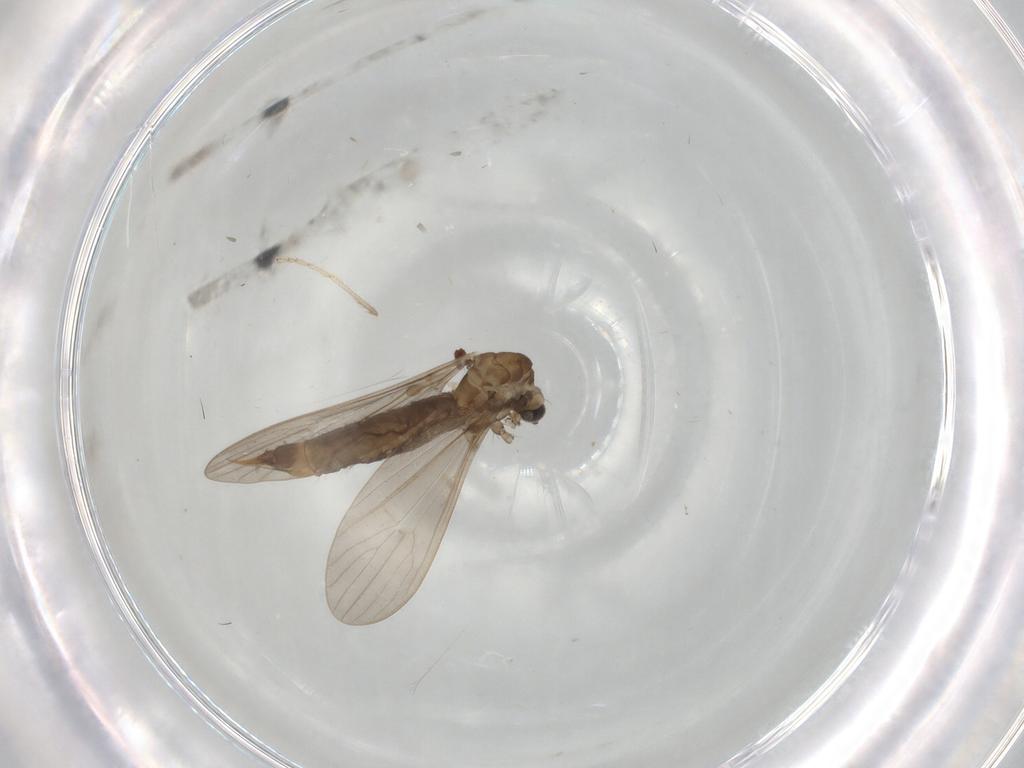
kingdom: Animalia
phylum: Arthropoda
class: Insecta
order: Diptera
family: Limoniidae
